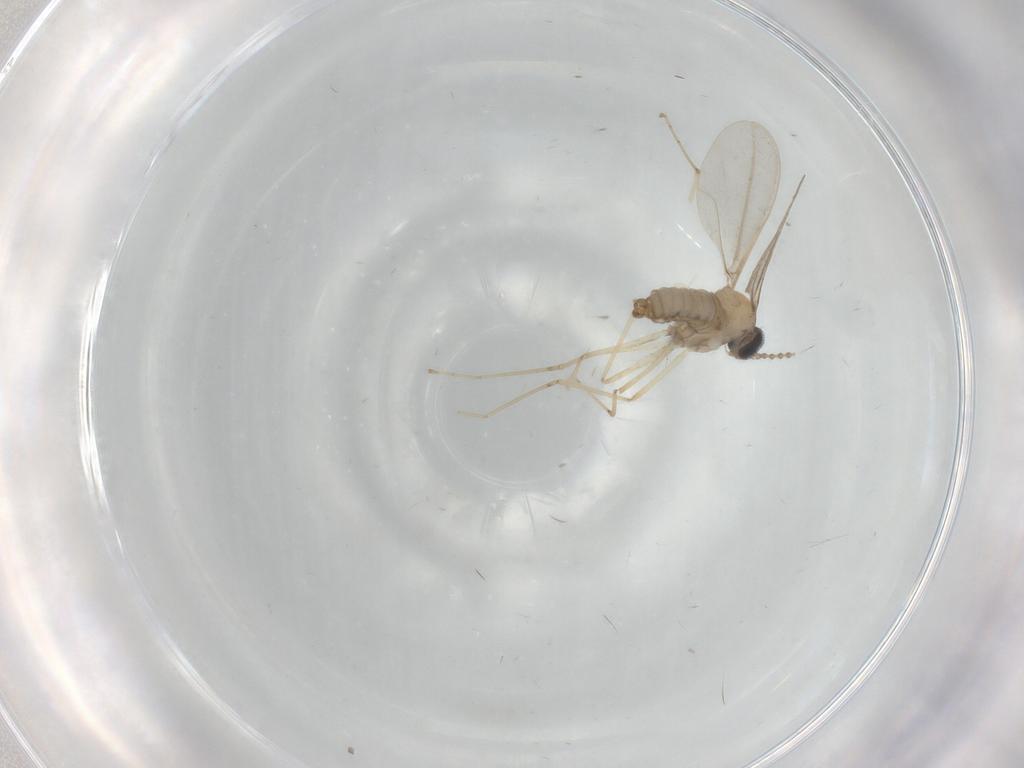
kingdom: Animalia
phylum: Arthropoda
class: Insecta
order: Diptera
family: Cecidomyiidae
